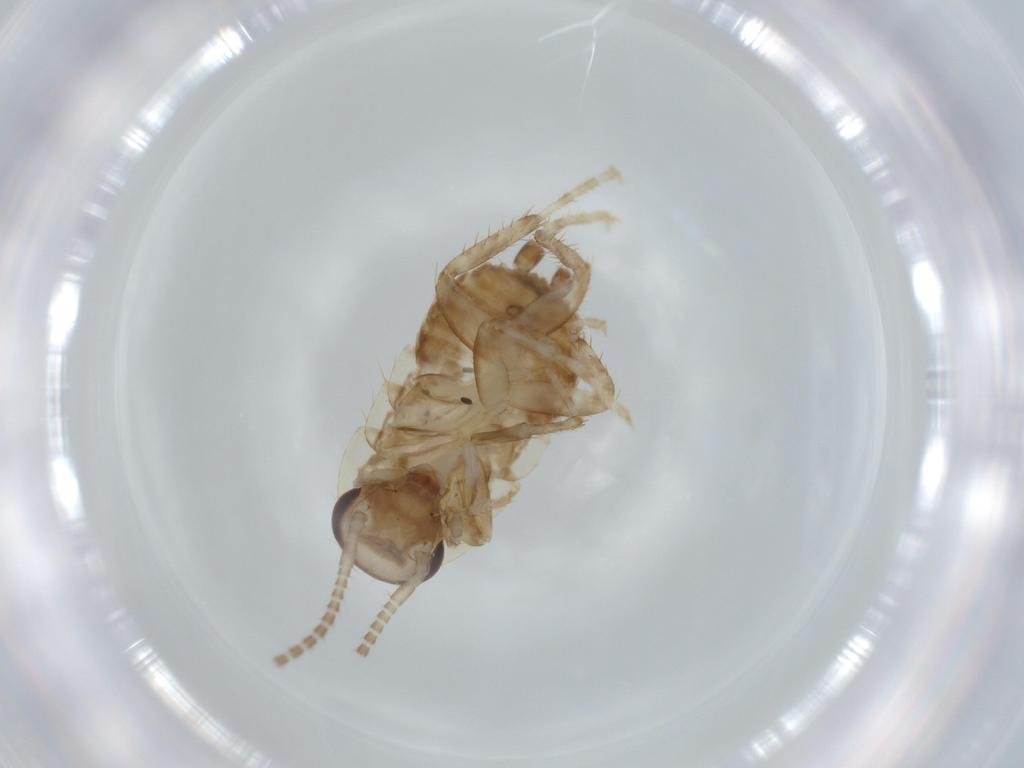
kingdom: Animalia
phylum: Arthropoda
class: Insecta
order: Blattodea
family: Ectobiidae
